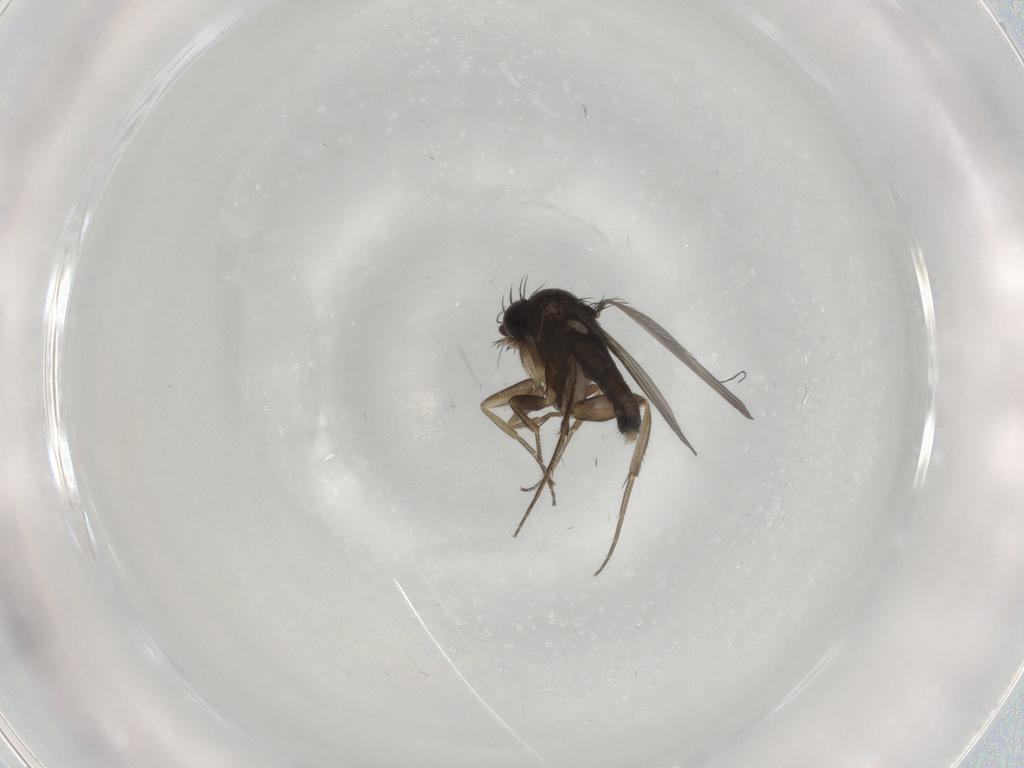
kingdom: Animalia
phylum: Arthropoda
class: Insecta
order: Diptera
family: Phoridae
